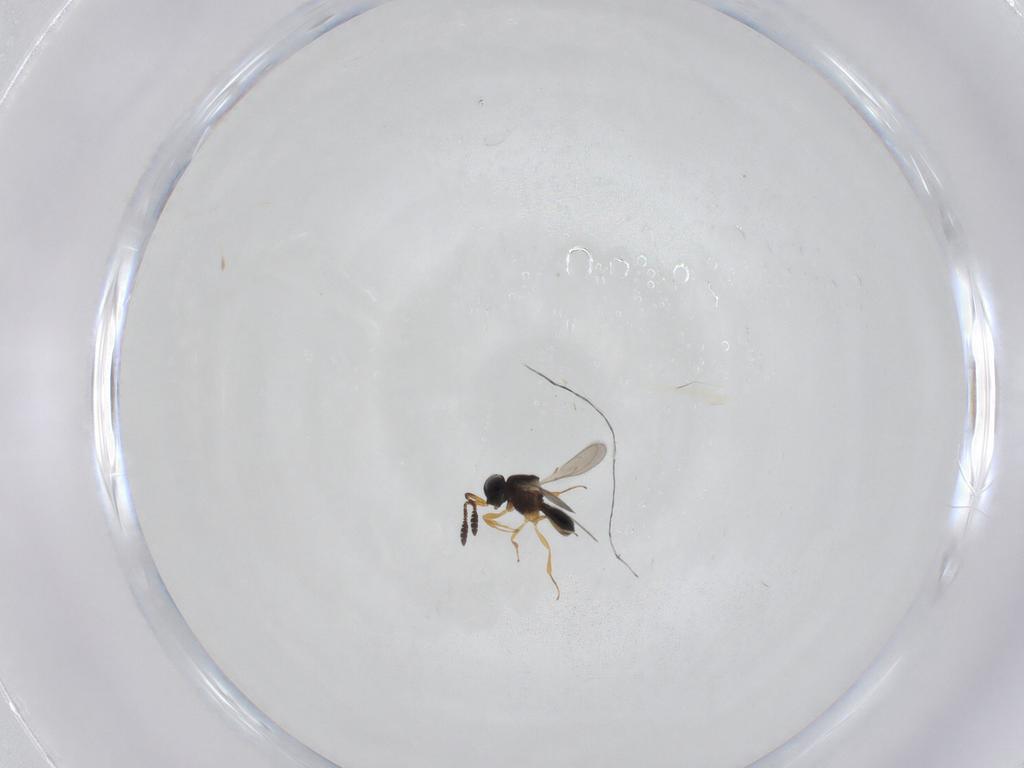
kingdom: Animalia
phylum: Arthropoda
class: Insecta
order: Hymenoptera
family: Scelionidae
